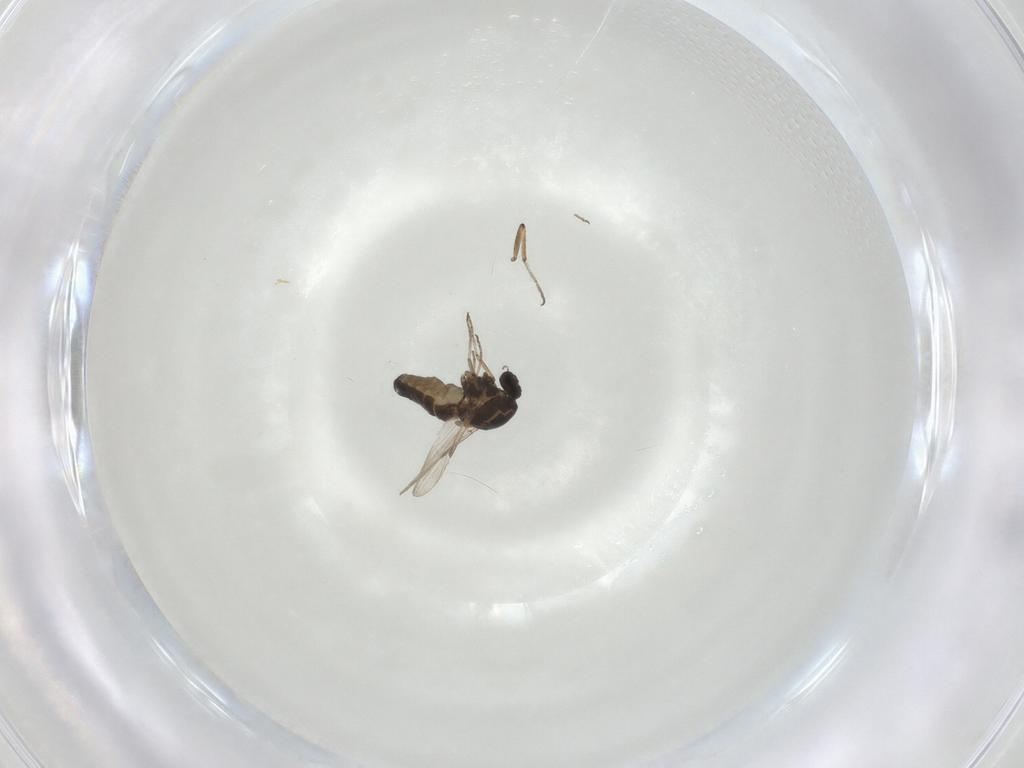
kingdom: Animalia
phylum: Arthropoda
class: Insecta
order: Diptera
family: Ceratopogonidae
